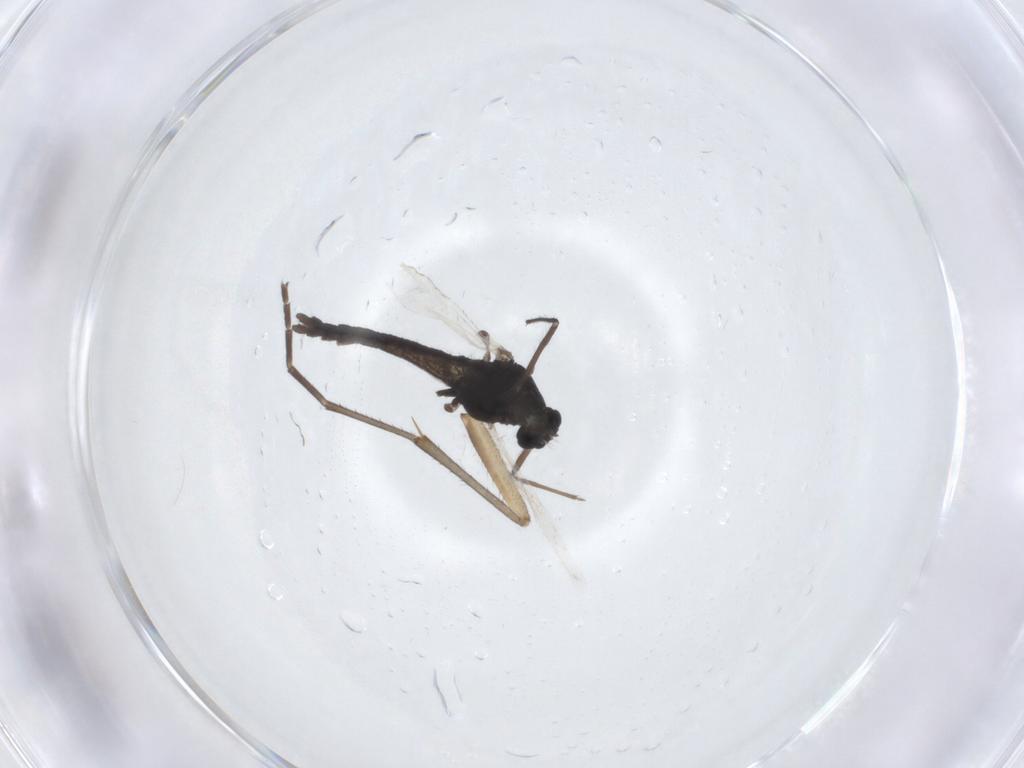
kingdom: Animalia
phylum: Arthropoda
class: Insecta
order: Diptera
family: Mycetophilidae
